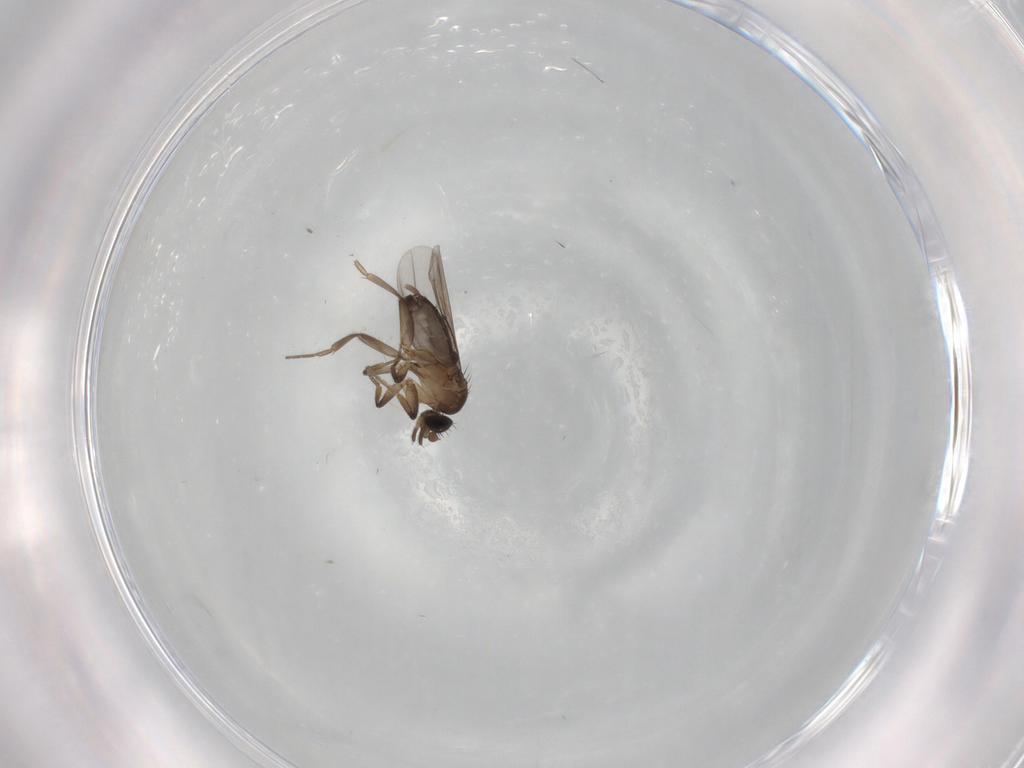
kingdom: Animalia
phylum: Arthropoda
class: Insecta
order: Diptera
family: Phoridae
